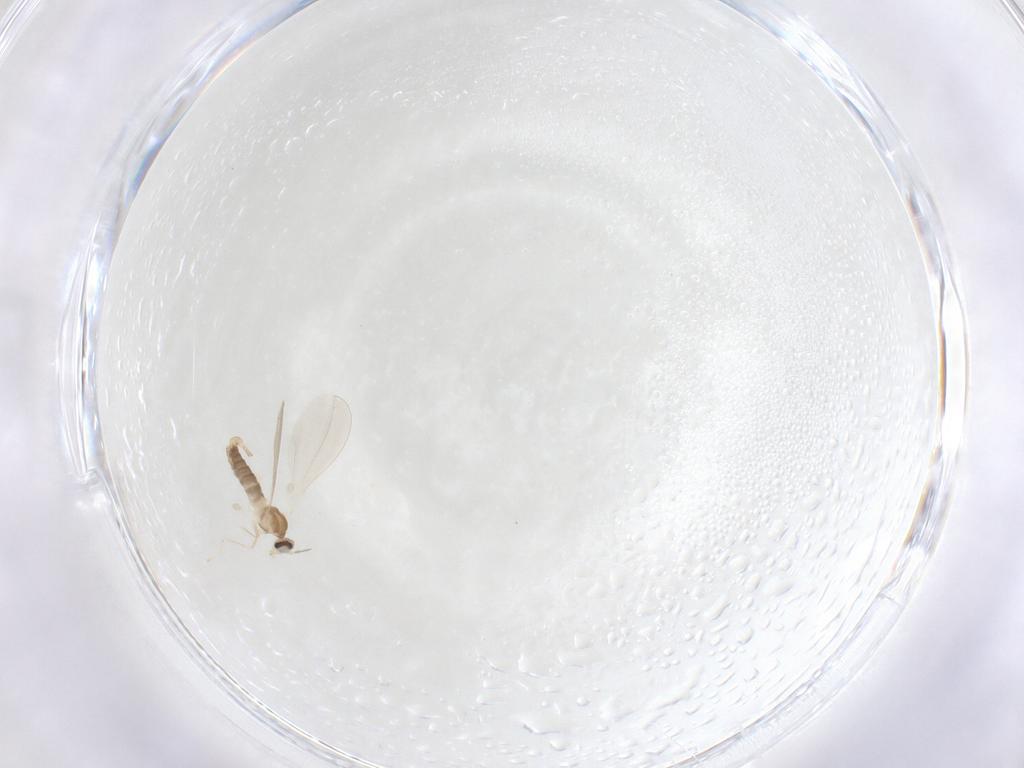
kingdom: Animalia
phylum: Arthropoda
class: Insecta
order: Diptera
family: Cecidomyiidae
